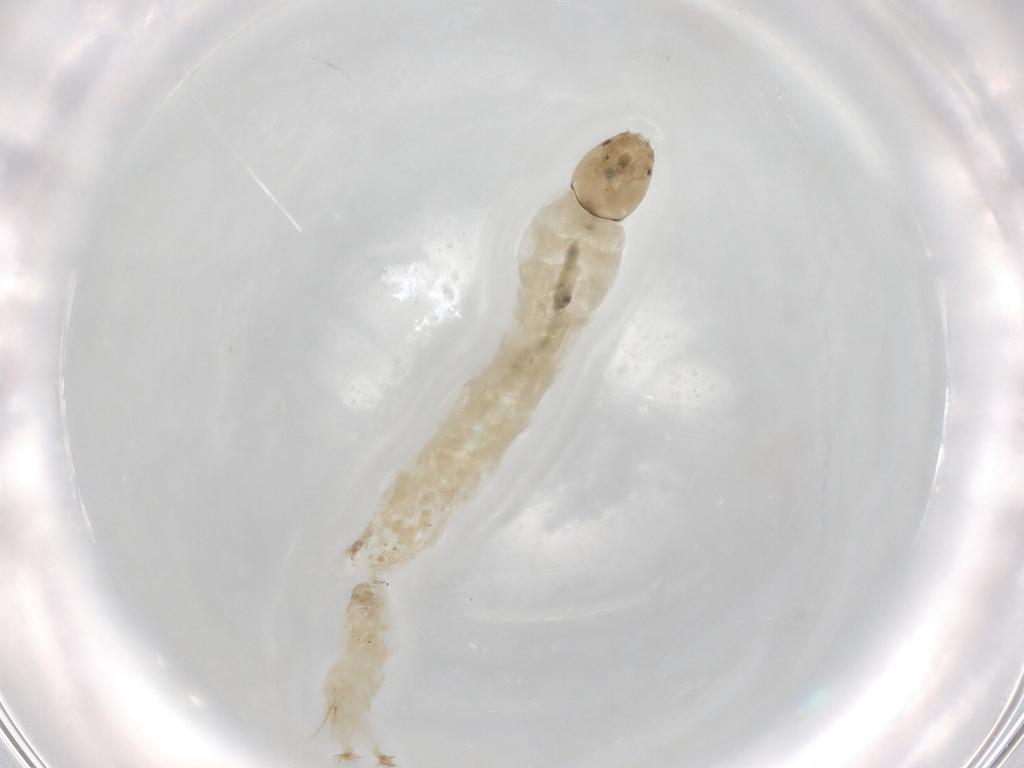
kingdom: Animalia
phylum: Arthropoda
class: Insecta
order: Diptera
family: Chironomidae
